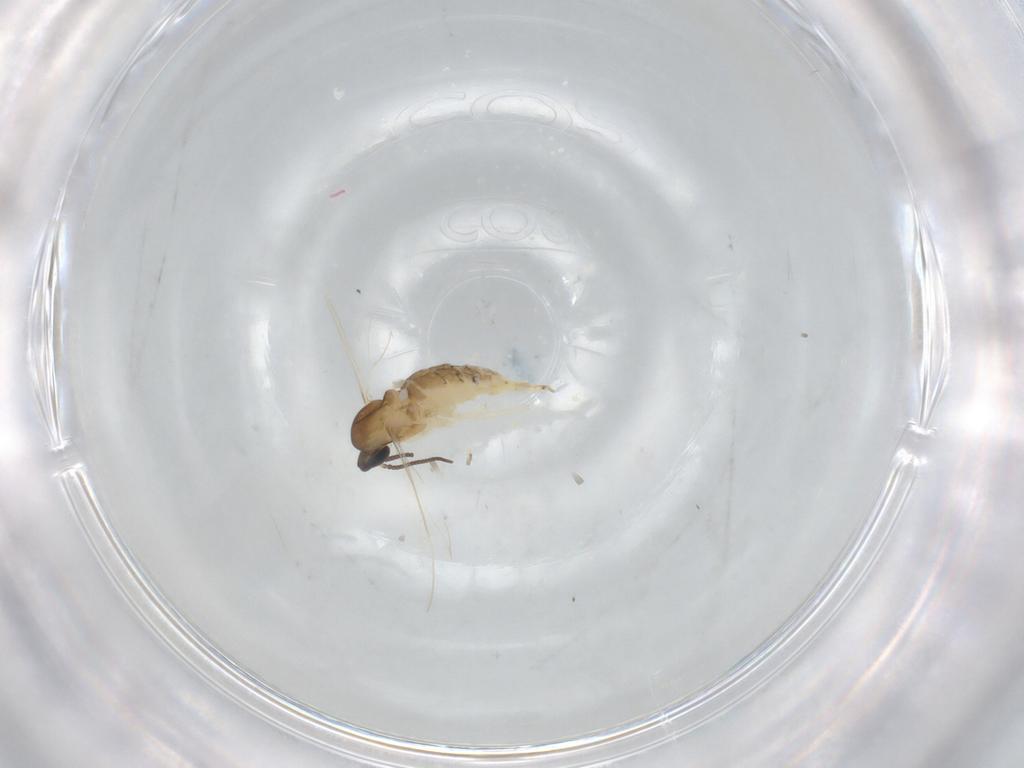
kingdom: Animalia
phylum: Arthropoda
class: Insecta
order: Diptera
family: Cecidomyiidae
